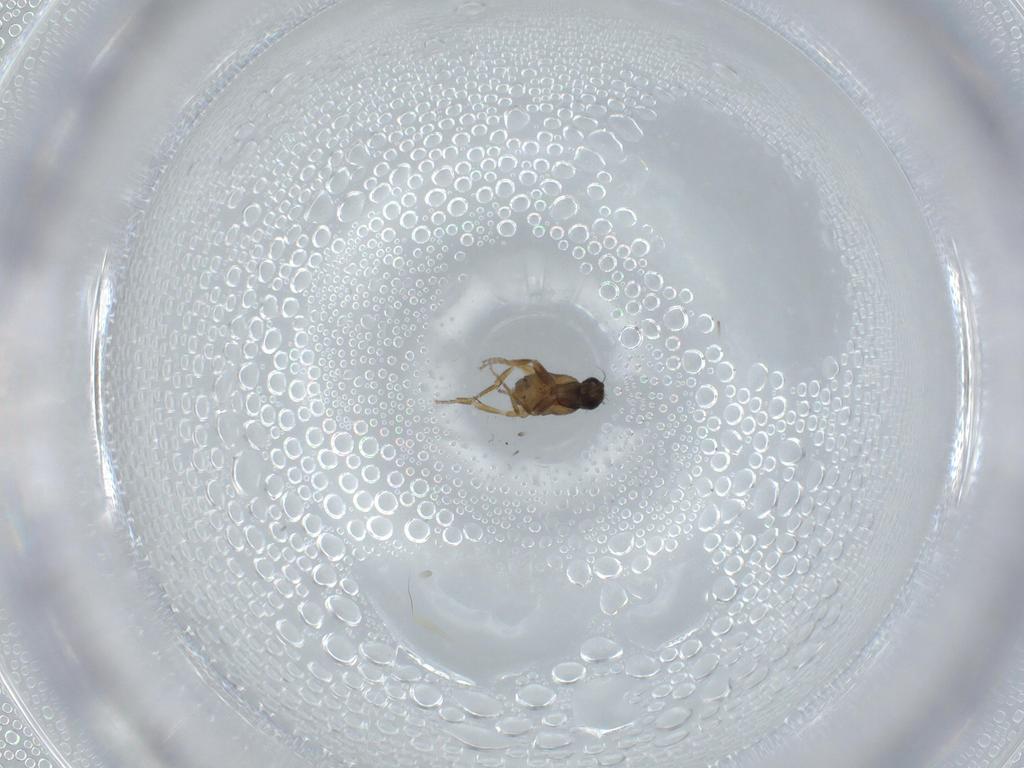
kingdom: Animalia
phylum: Arthropoda
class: Insecta
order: Diptera
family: Phoridae
